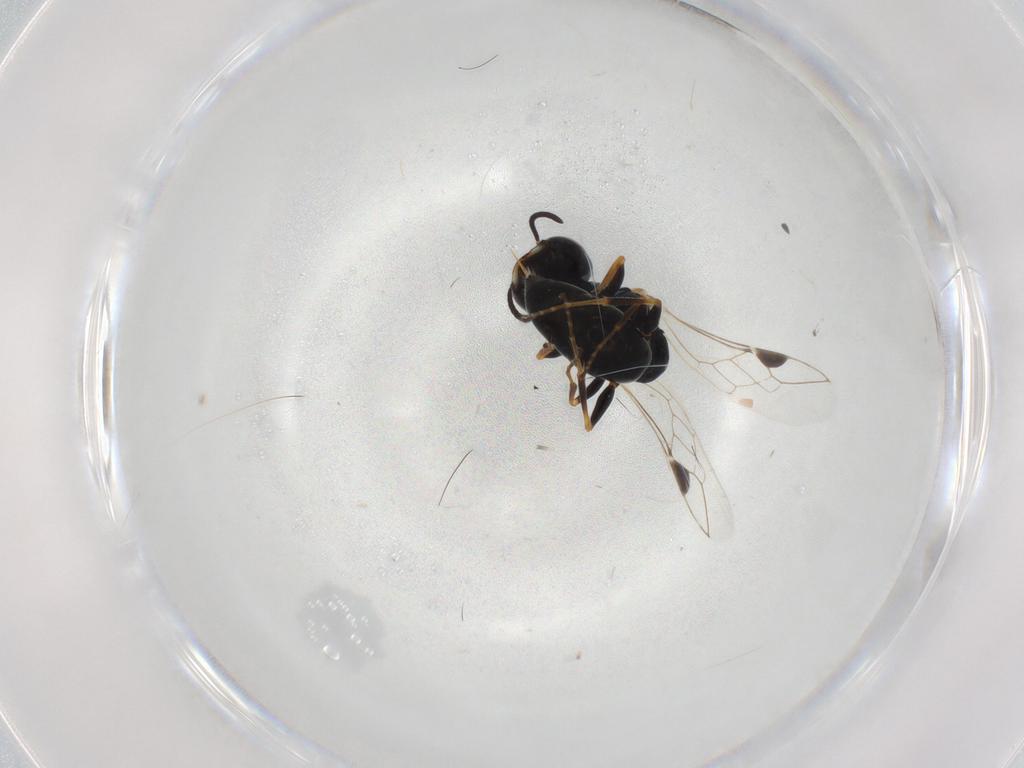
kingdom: Animalia
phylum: Arthropoda
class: Insecta
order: Hymenoptera
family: Crabronidae
